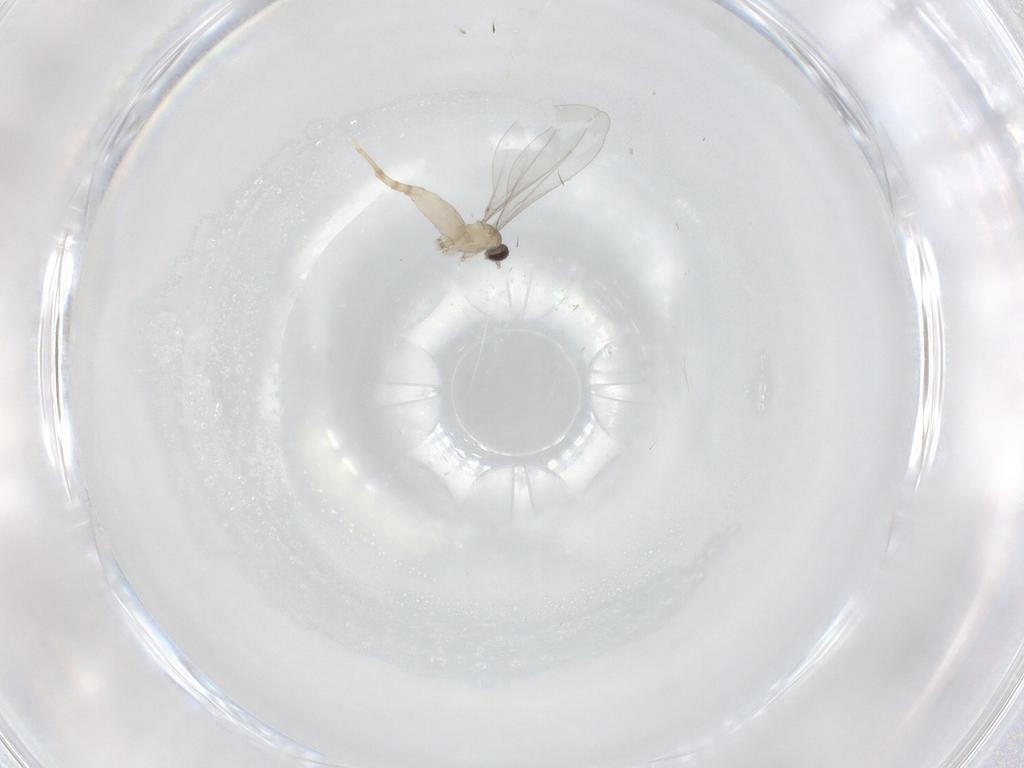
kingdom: Animalia
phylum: Arthropoda
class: Insecta
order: Diptera
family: Cecidomyiidae
